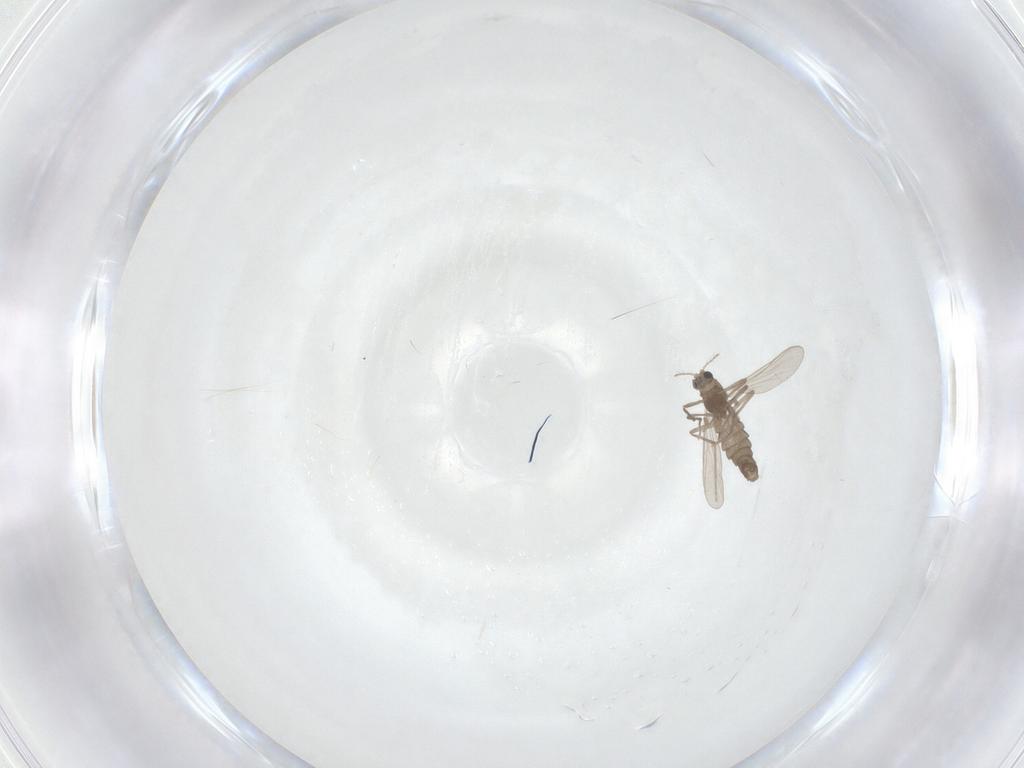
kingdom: Animalia
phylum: Arthropoda
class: Insecta
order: Diptera
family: Chironomidae
